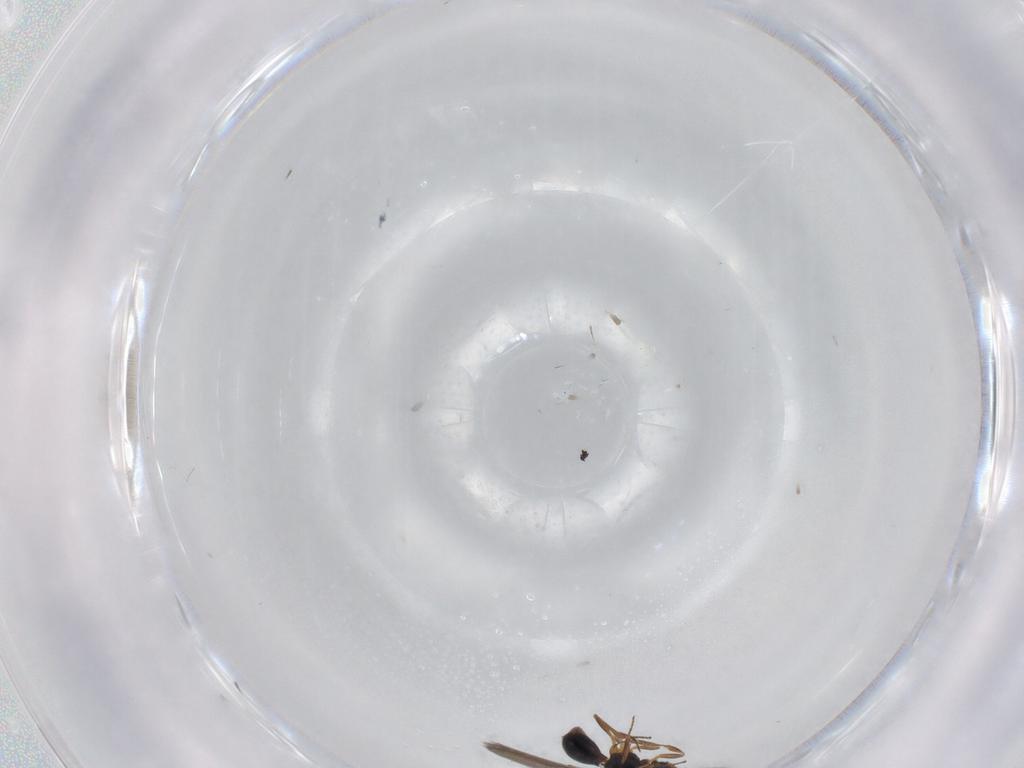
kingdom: Animalia
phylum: Arthropoda
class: Insecta
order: Hymenoptera
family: Scelionidae
